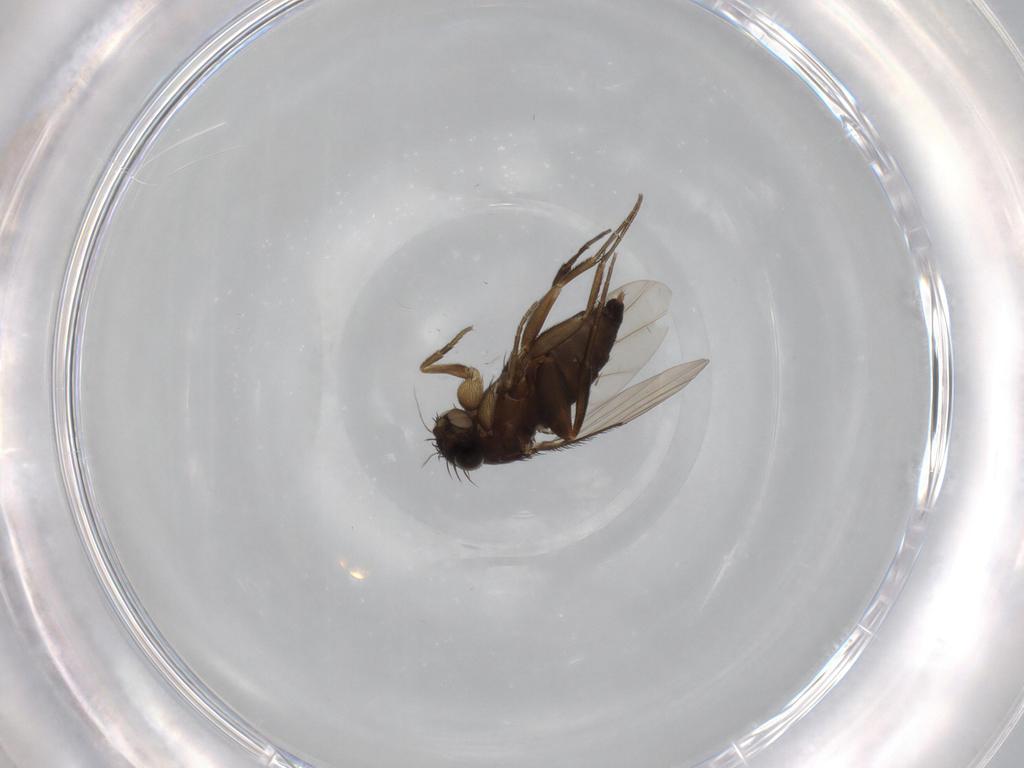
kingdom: Animalia
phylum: Arthropoda
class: Insecta
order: Diptera
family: Phoridae
